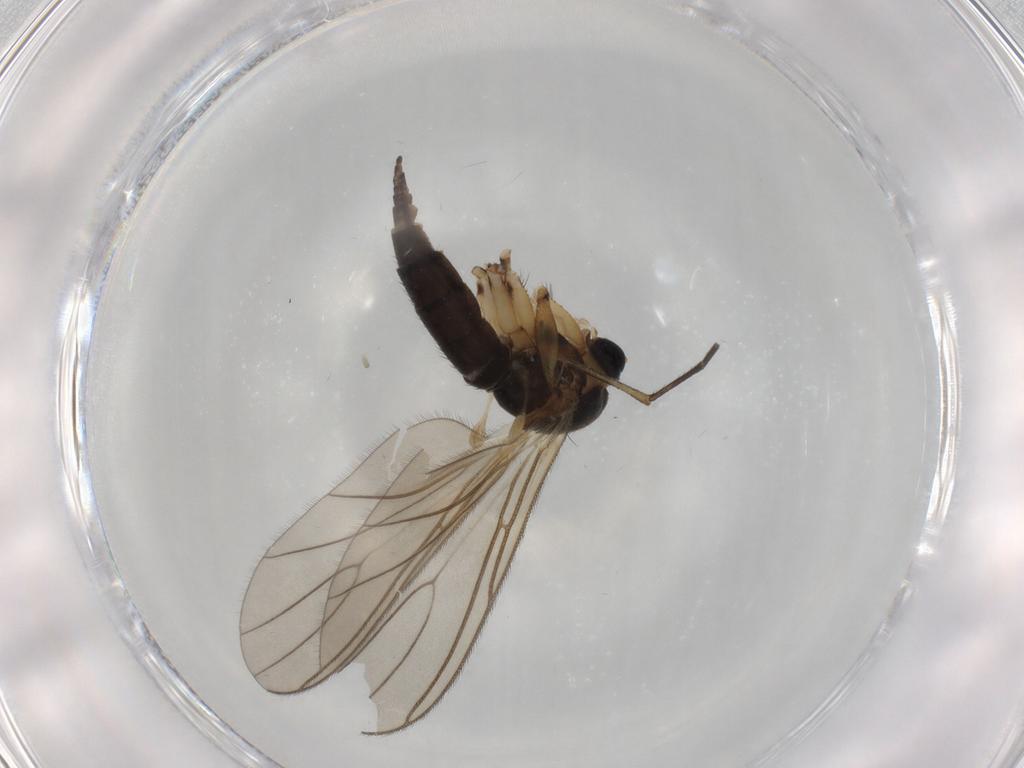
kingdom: Animalia
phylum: Arthropoda
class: Insecta
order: Diptera
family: Sciaridae
